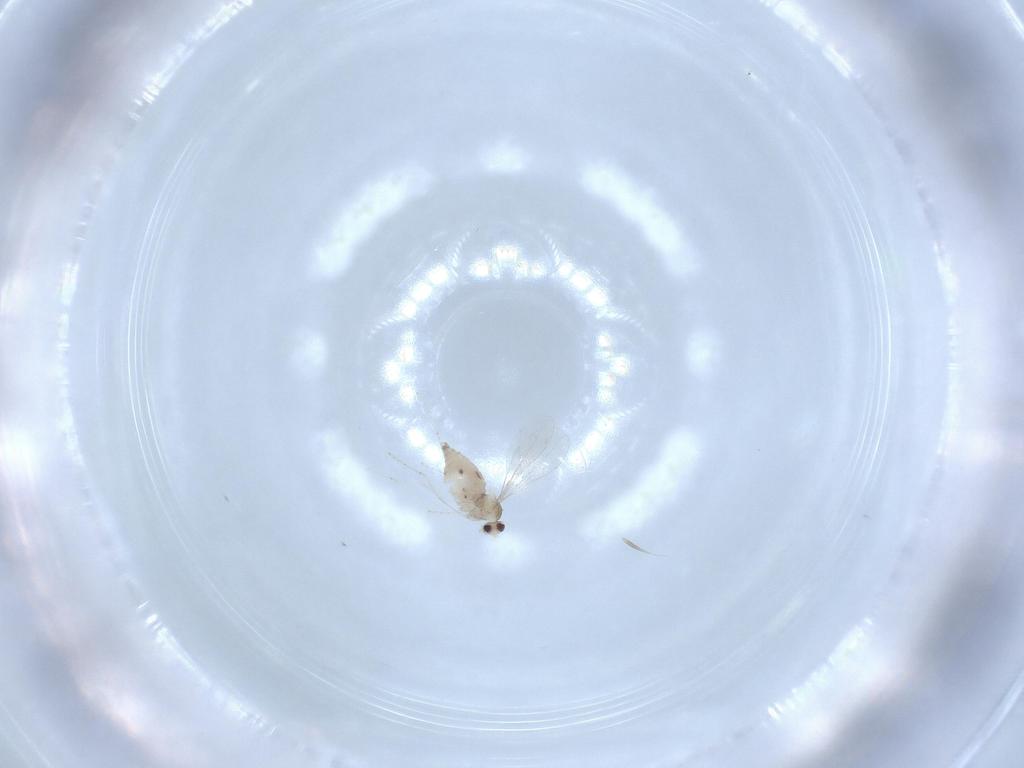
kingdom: Animalia
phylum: Arthropoda
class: Insecta
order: Diptera
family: Cecidomyiidae
